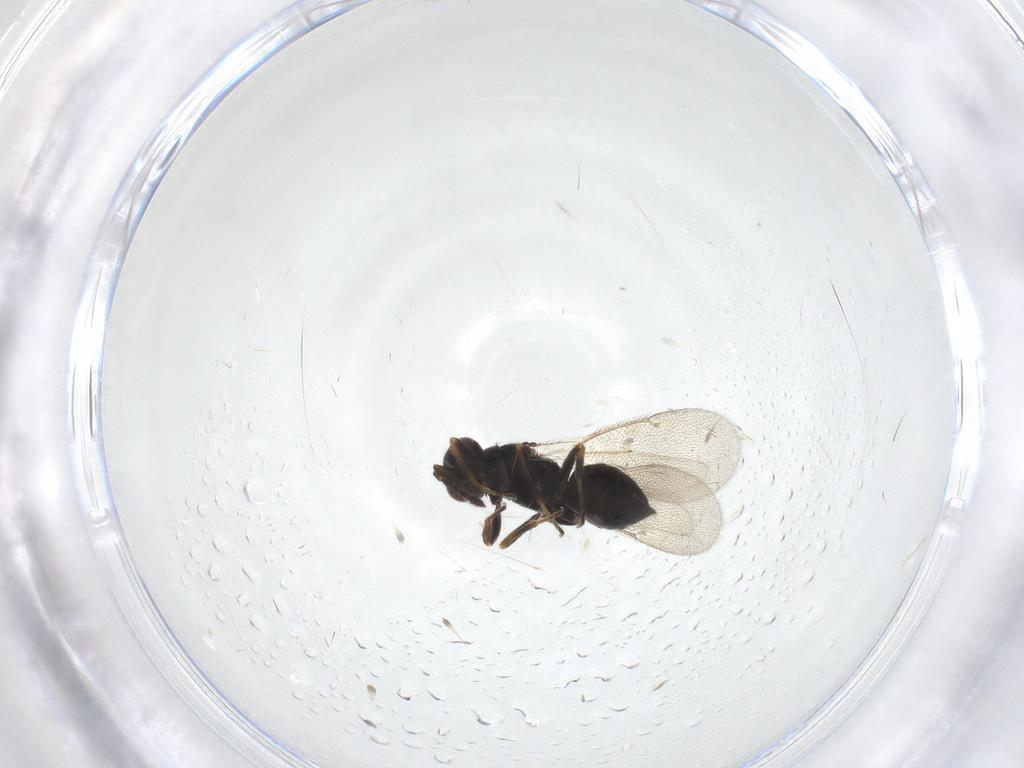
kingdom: Animalia
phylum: Arthropoda
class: Insecta
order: Hymenoptera
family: Eulophidae
